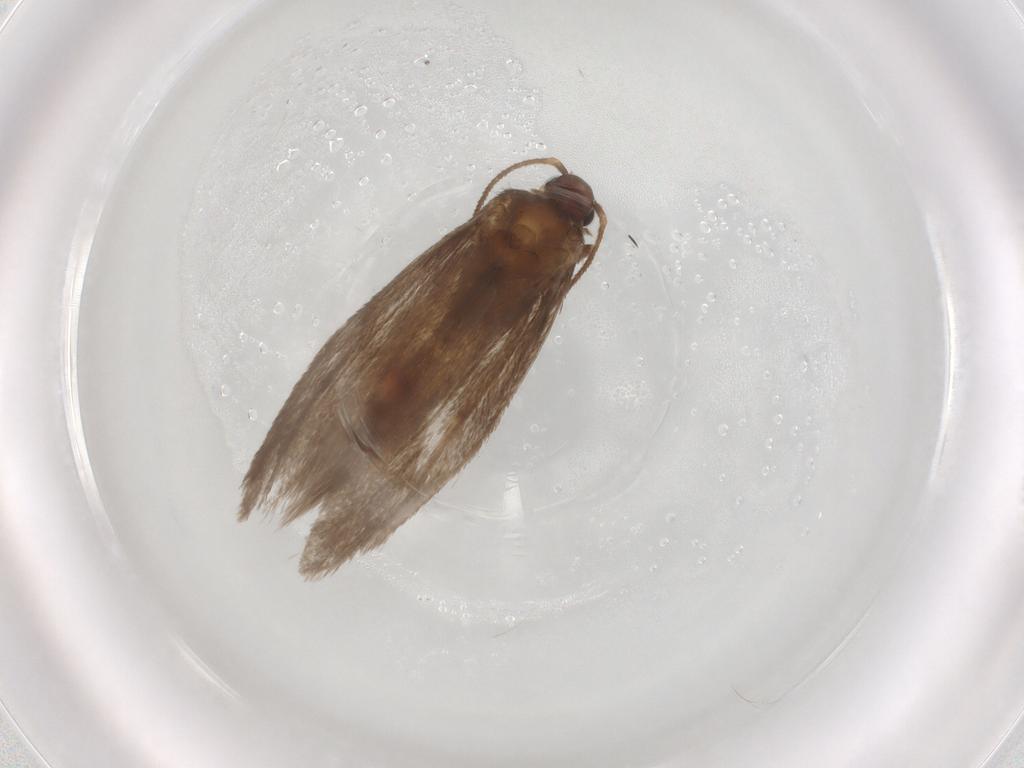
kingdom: Animalia
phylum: Arthropoda
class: Insecta
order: Lepidoptera
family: Limacodidae
